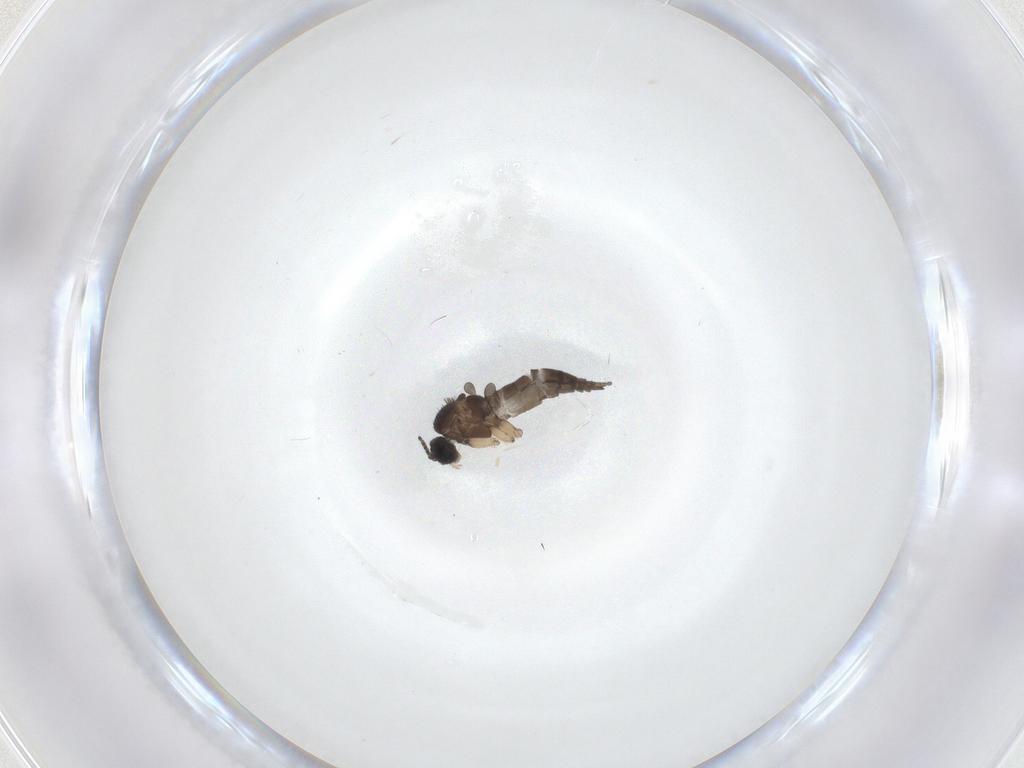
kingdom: Animalia
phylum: Arthropoda
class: Insecta
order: Diptera
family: Sciaridae
